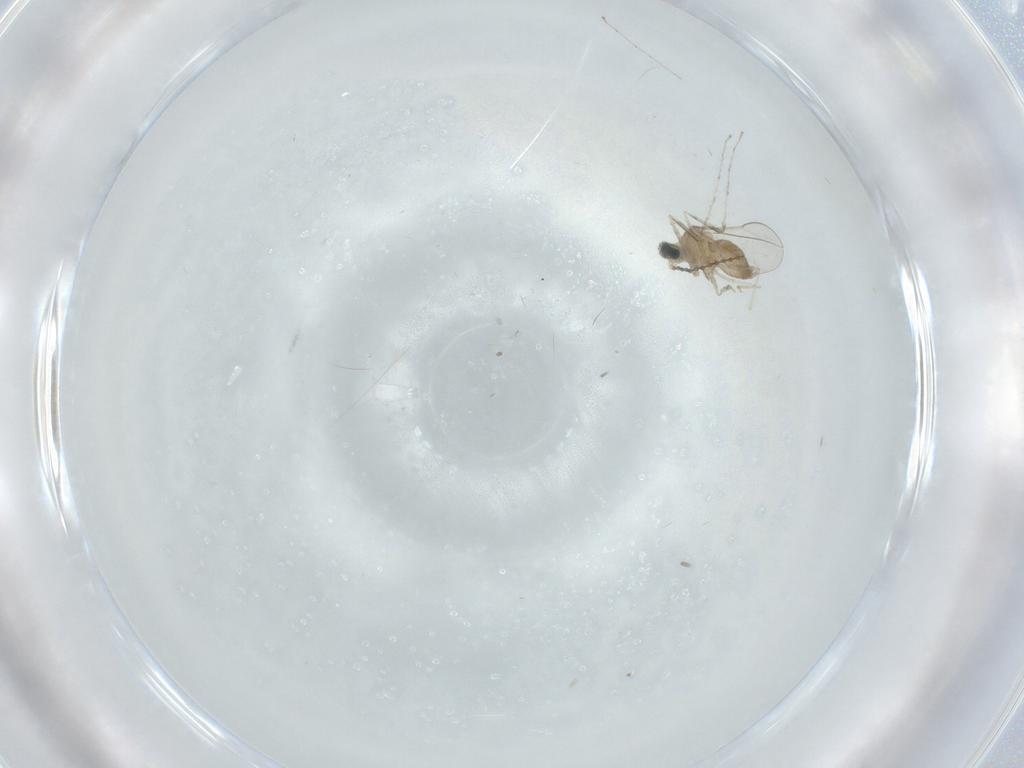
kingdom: Animalia
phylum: Arthropoda
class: Insecta
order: Diptera
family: Cecidomyiidae
